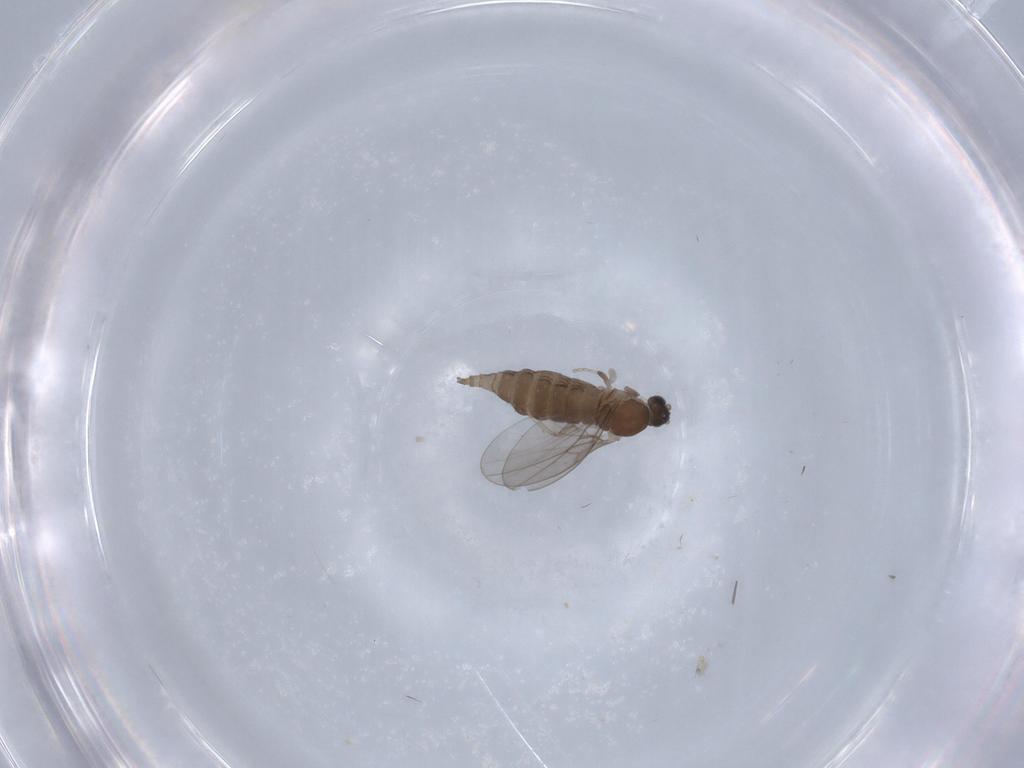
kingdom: Animalia
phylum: Arthropoda
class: Insecta
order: Diptera
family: Cecidomyiidae
